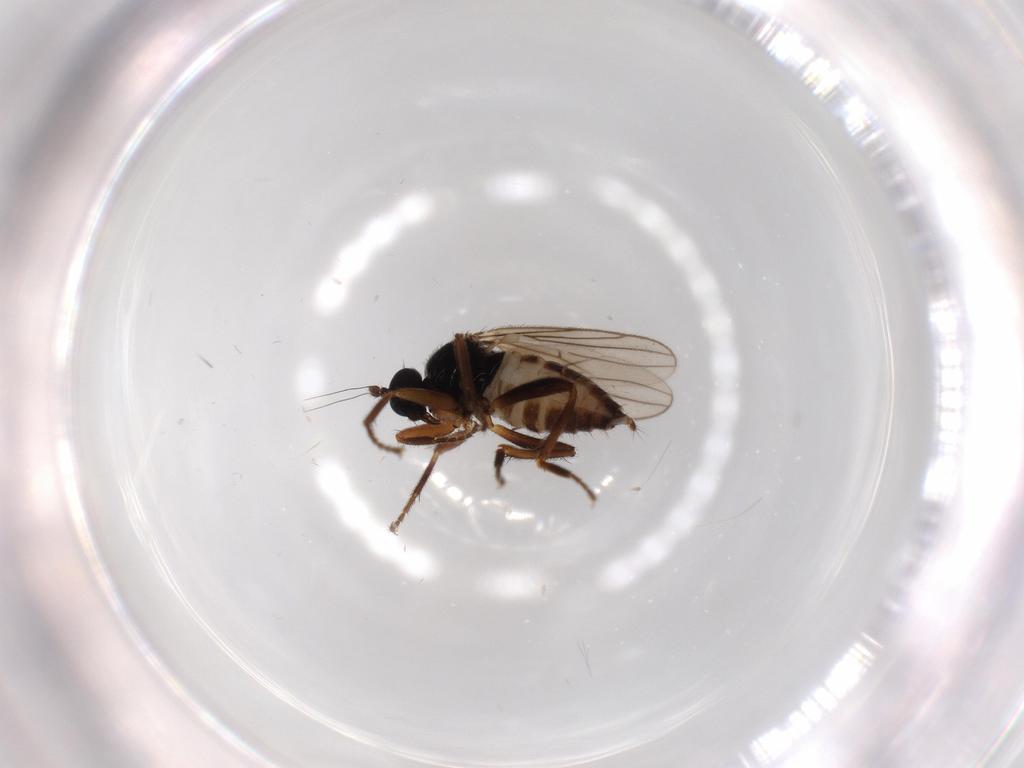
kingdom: Animalia
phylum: Arthropoda
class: Insecta
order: Diptera
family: Hybotidae
